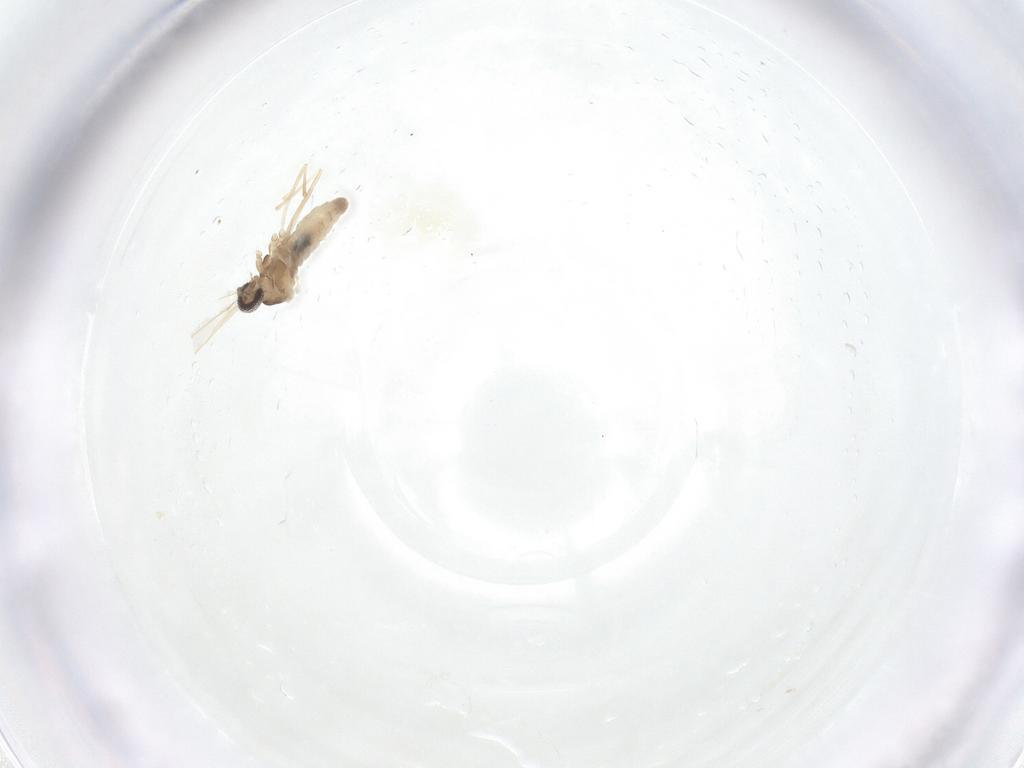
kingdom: Animalia
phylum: Arthropoda
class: Insecta
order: Diptera
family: Cecidomyiidae
